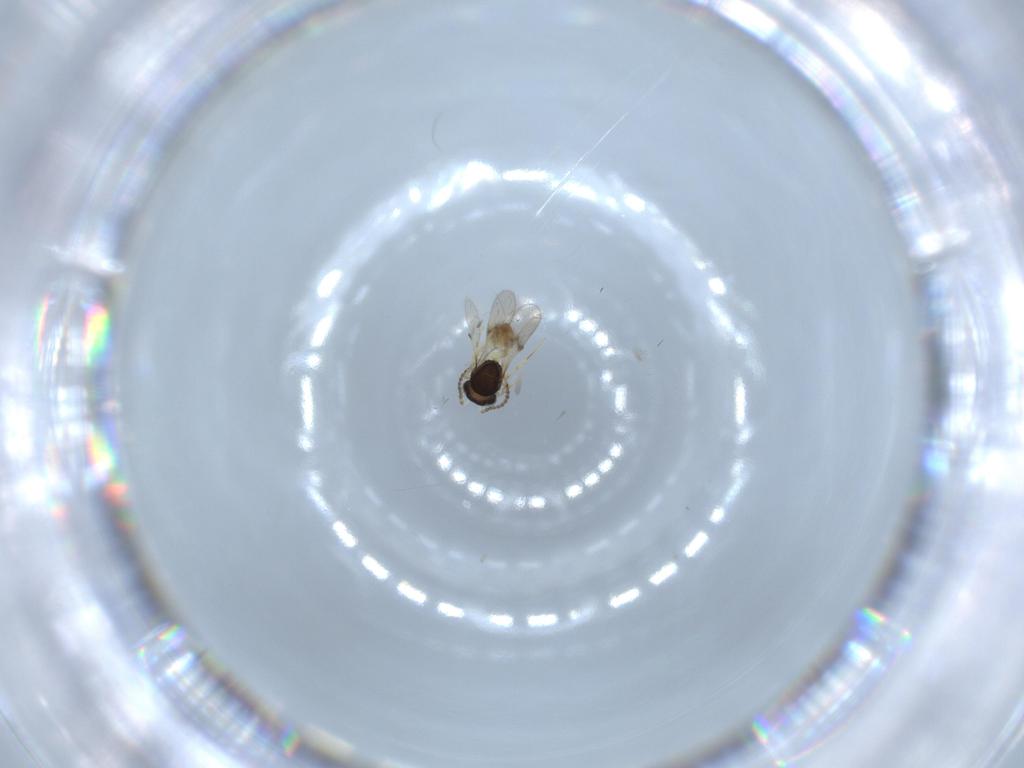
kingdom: Animalia
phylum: Arthropoda
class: Insecta
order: Hymenoptera
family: Scelionidae
